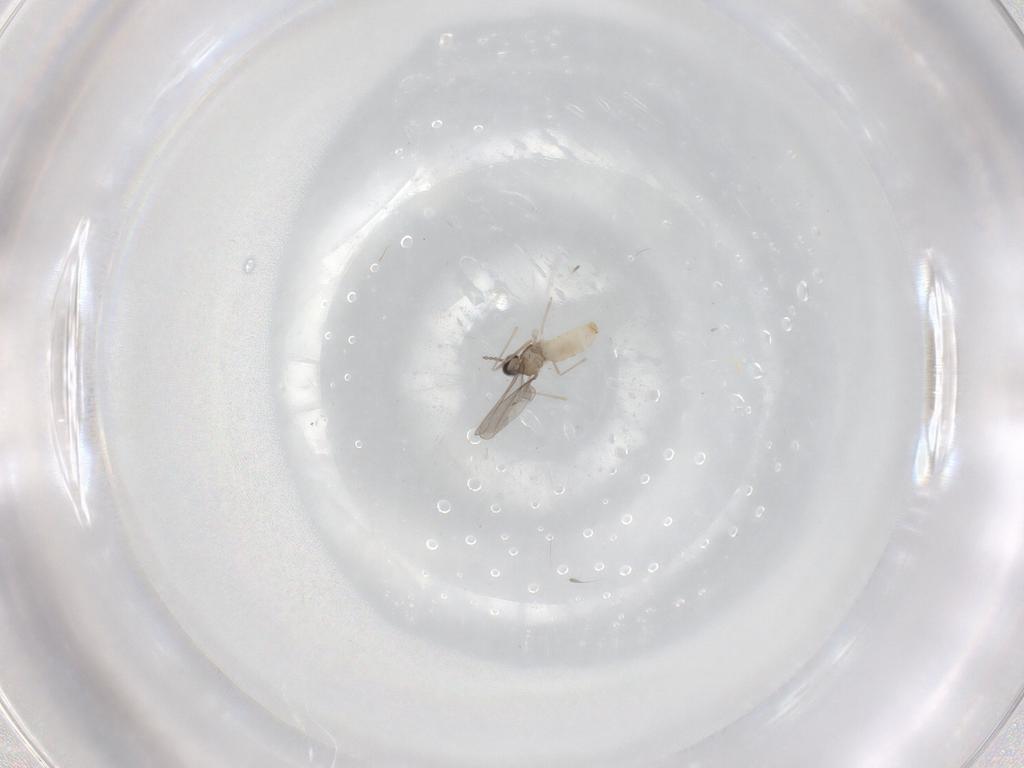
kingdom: Animalia
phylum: Arthropoda
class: Insecta
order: Diptera
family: Cecidomyiidae
